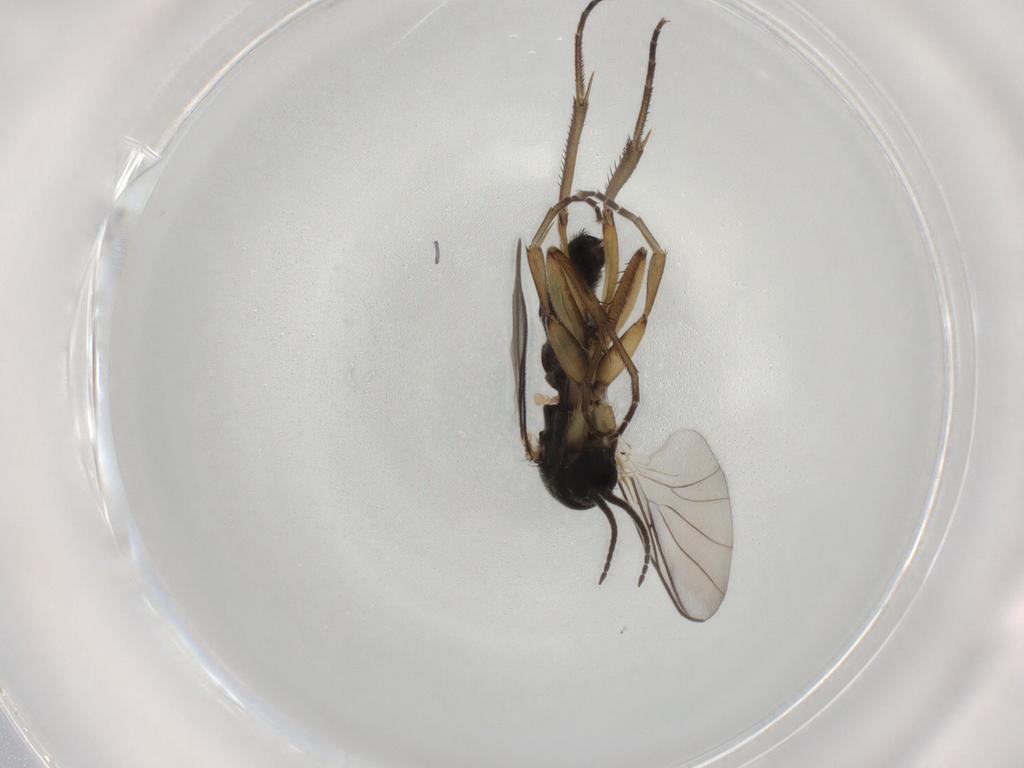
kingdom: Animalia
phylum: Arthropoda
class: Insecta
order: Diptera
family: Mycetophilidae
